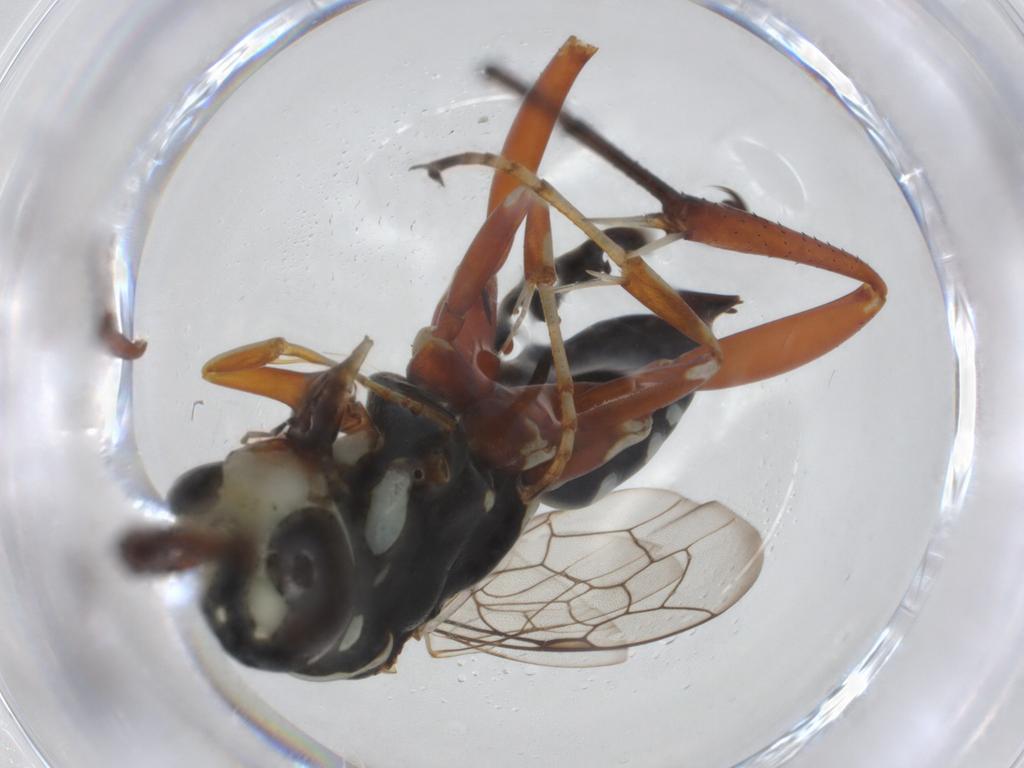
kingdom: Animalia
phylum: Arthropoda
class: Insecta
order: Hymenoptera
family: Pompilidae
